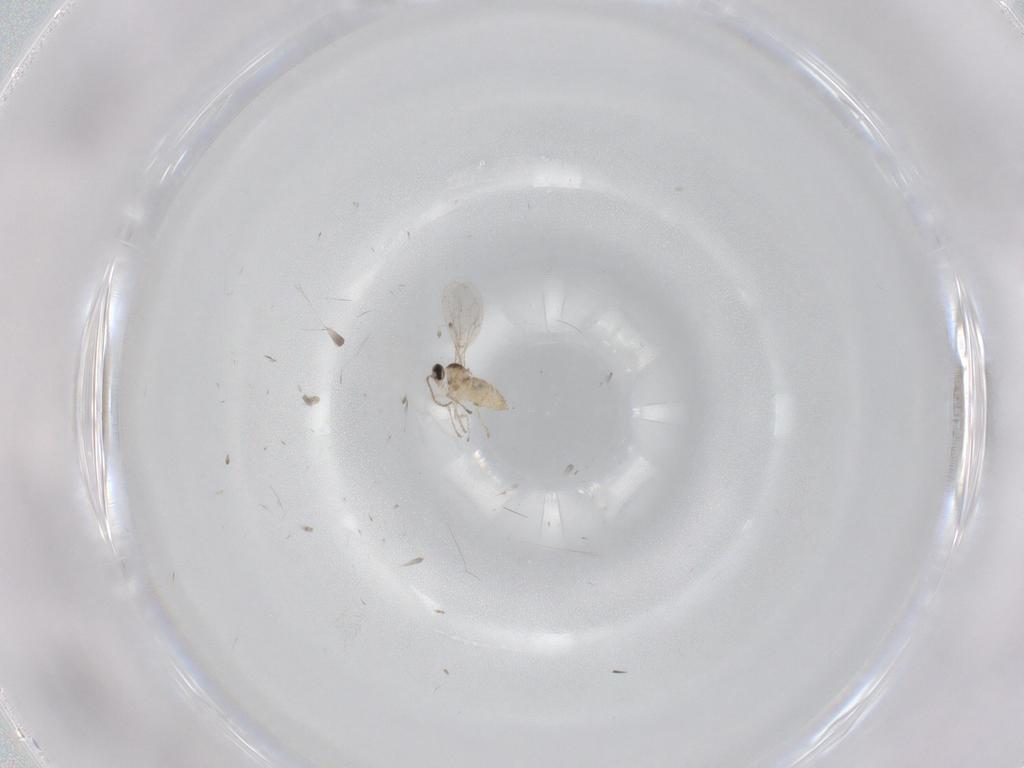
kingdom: Animalia
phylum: Arthropoda
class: Insecta
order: Diptera
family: Cecidomyiidae
